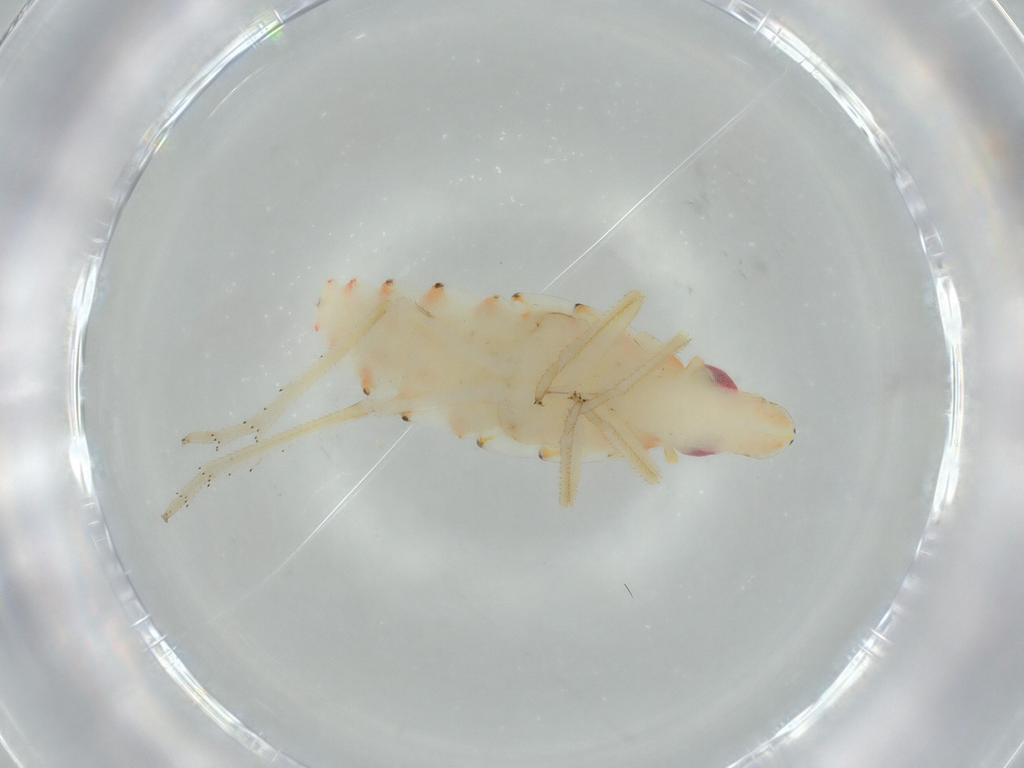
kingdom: Animalia
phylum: Arthropoda
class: Insecta
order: Hemiptera
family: Tropiduchidae
